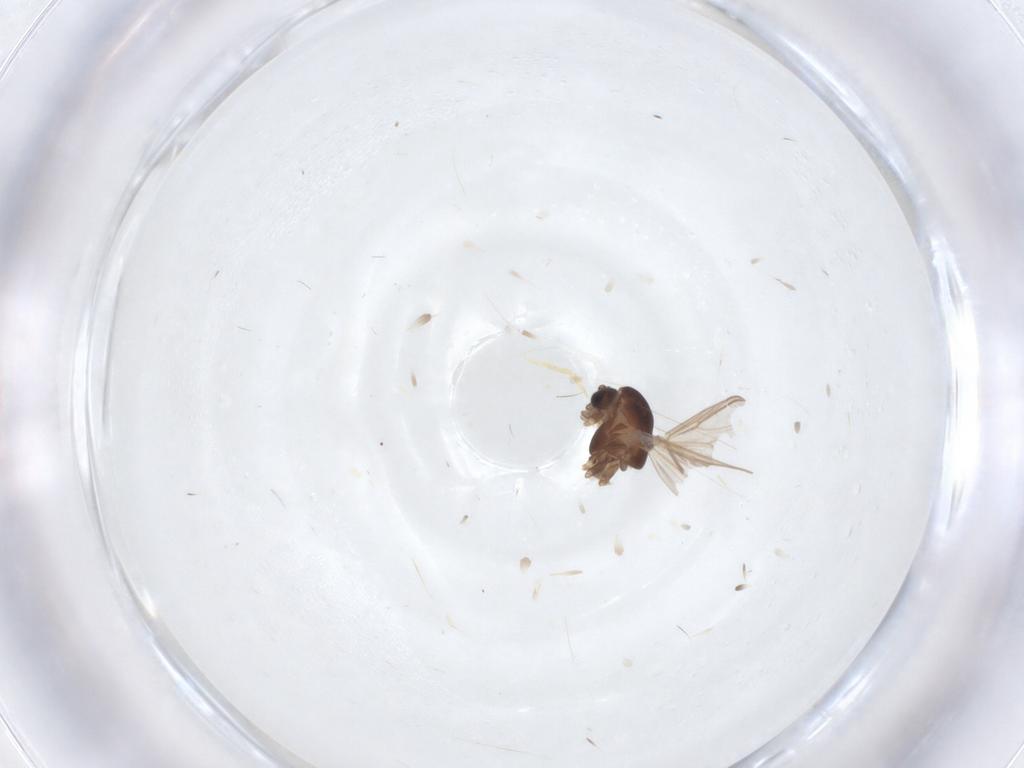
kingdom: Animalia
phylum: Arthropoda
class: Insecta
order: Diptera
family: Chironomidae
